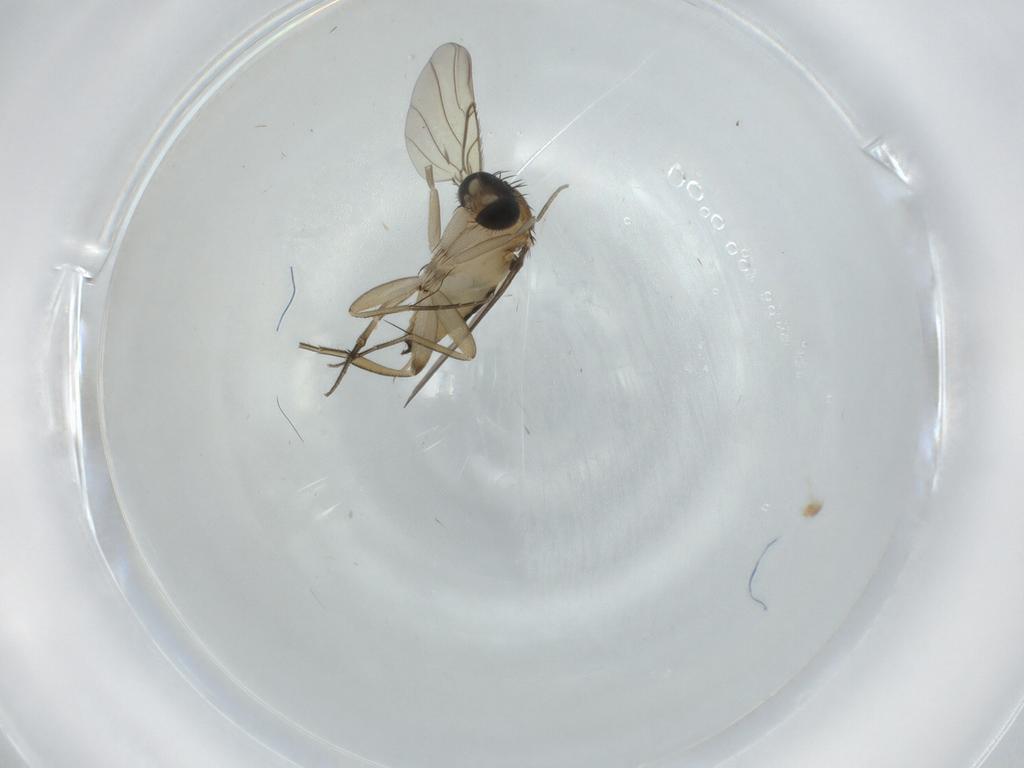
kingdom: Animalia
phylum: Arthropoda
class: Insecta
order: Diptera
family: Phoridae
